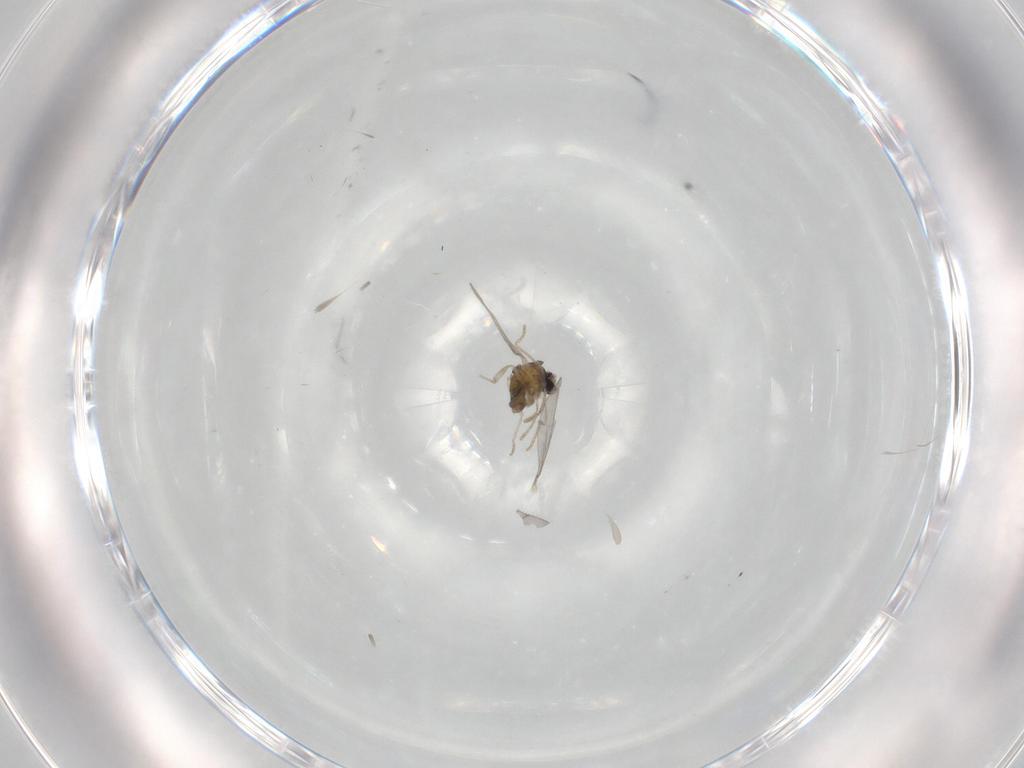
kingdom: Animalia
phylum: Arthropoda
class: Insecta
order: Diptera
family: Cecidomyiidae
